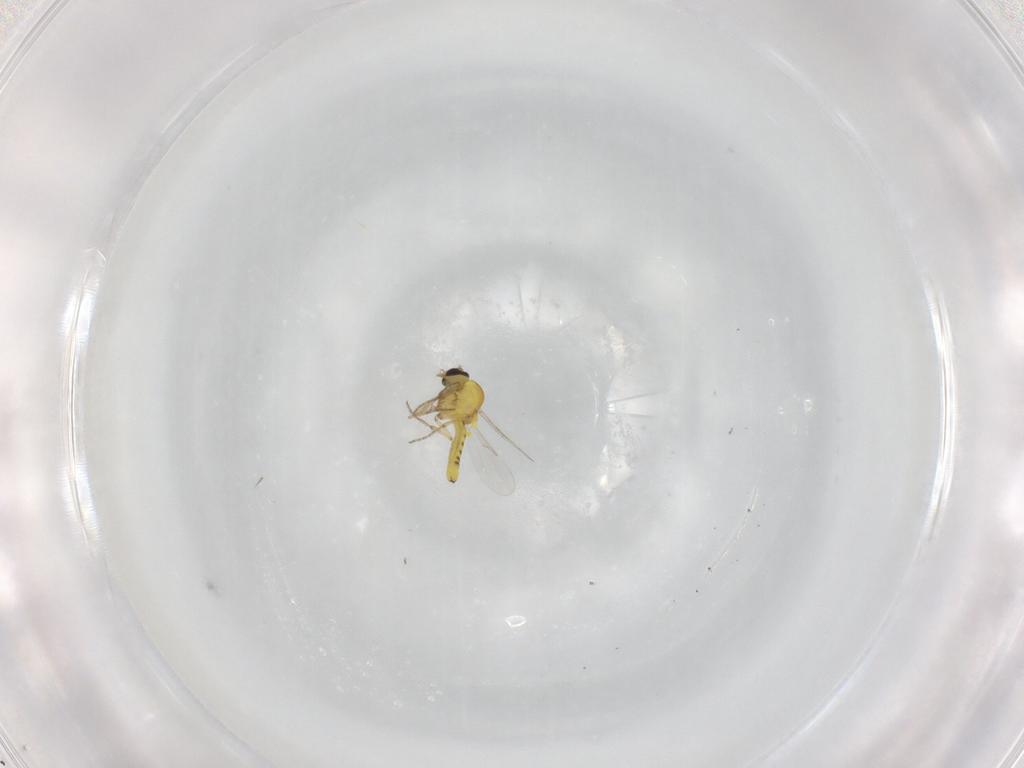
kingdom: Animalia
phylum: Arthropoda
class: Insecta
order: Diptera
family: Ceratopogonidae
